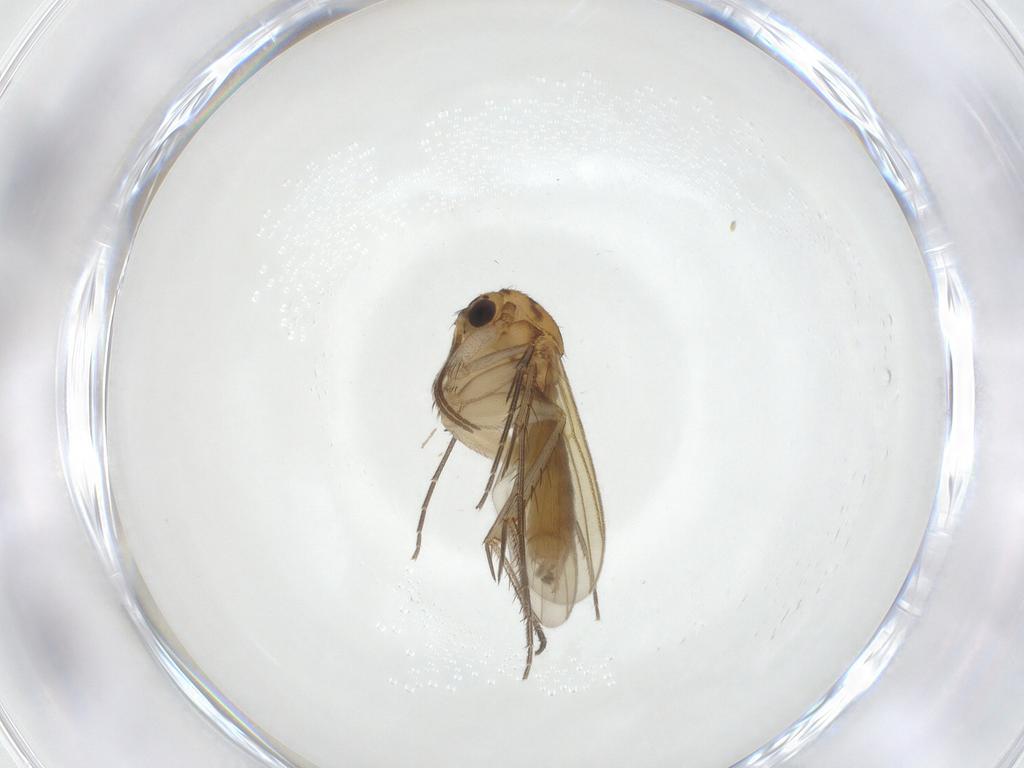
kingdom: Animalia
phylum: Arthropoda
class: Insecta
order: Diptera
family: Mycetophilidae
